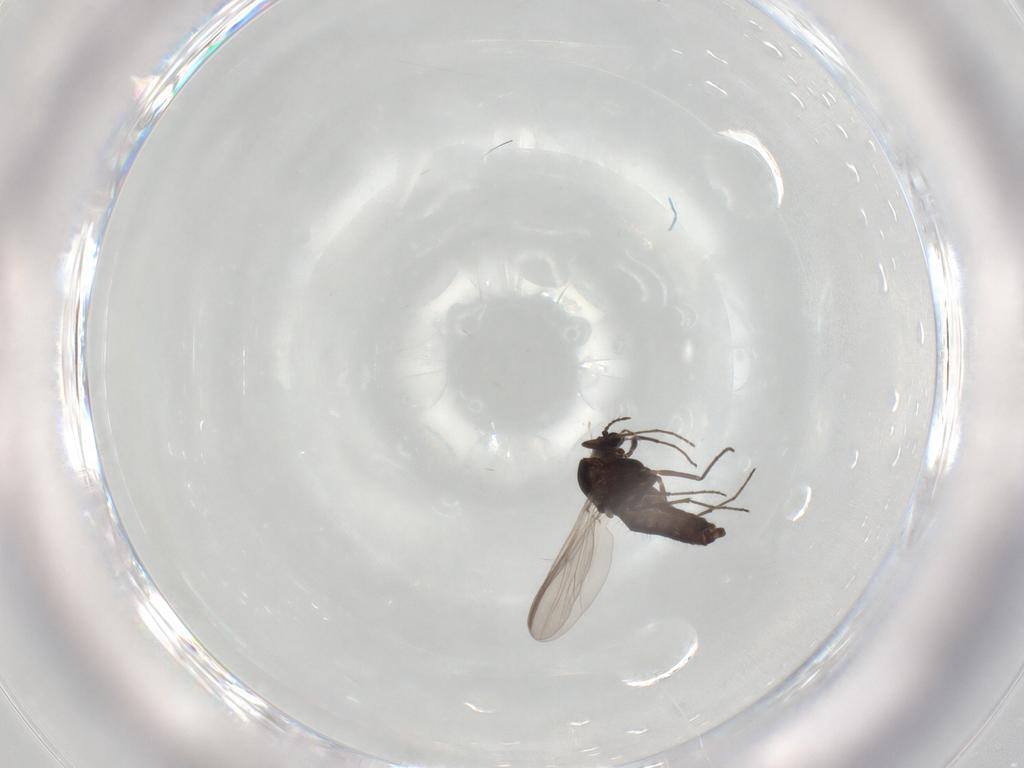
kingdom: Animalia
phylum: Arthropoda
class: Insecta
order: Diptera
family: Chironomidae
